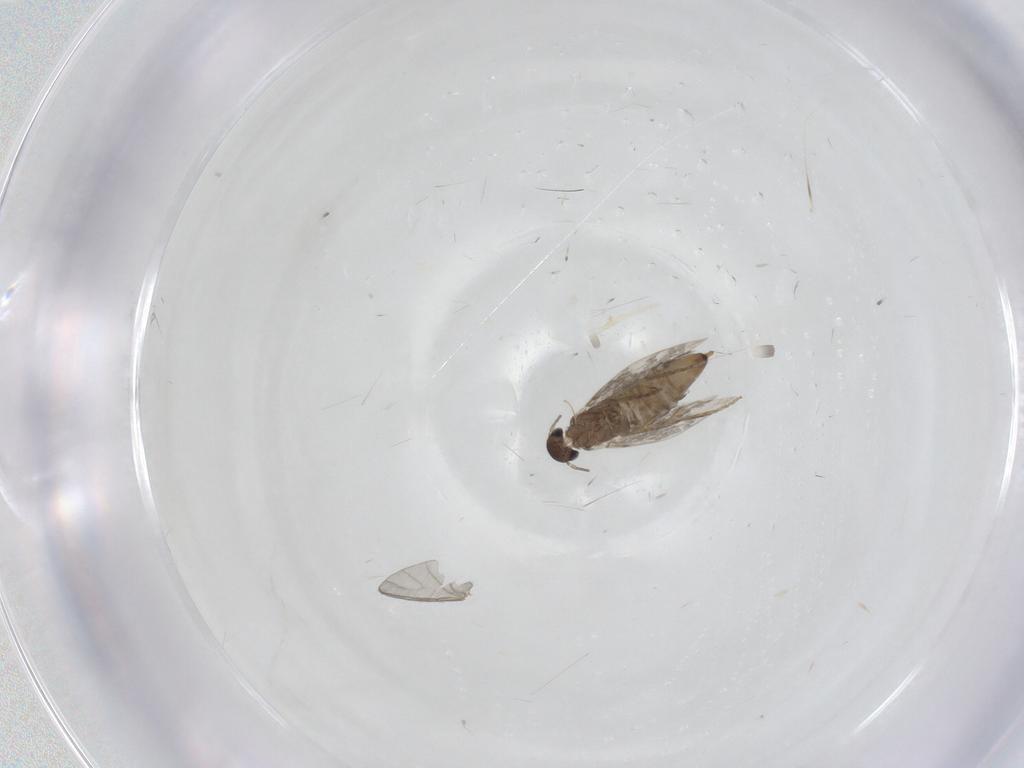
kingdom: Animalia
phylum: Arthropoda
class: Insecta
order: Lepidoptera
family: Heliozelidae
